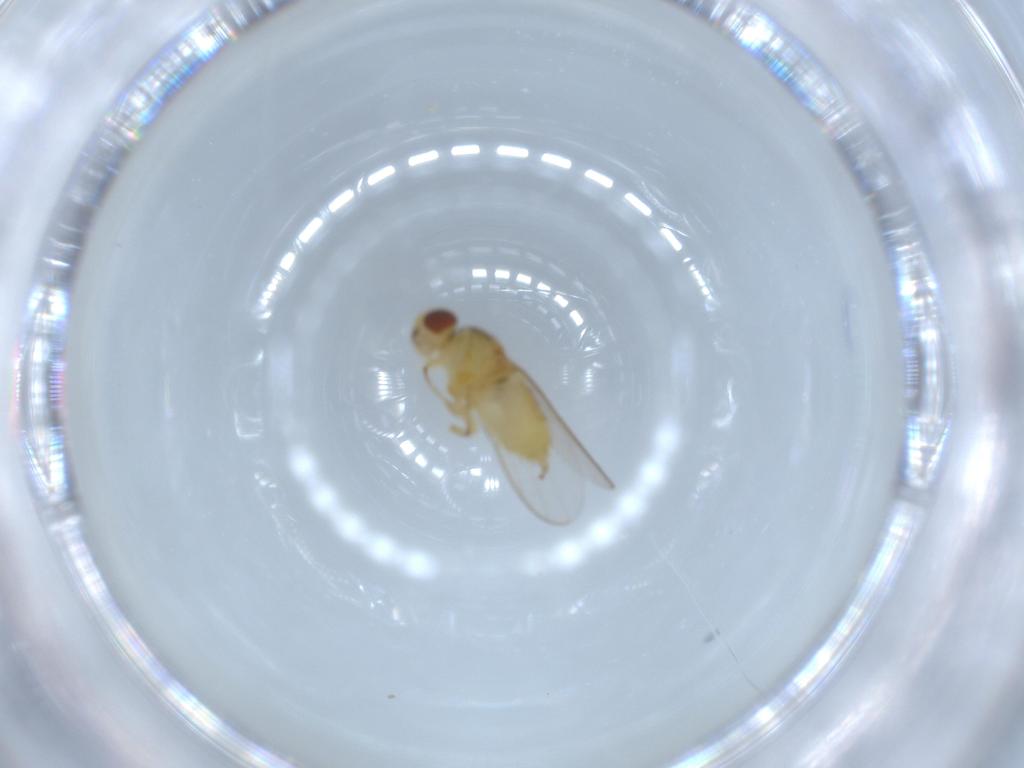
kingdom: Animalia
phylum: Arthropoda
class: Insecta
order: Diptera
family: Chloropidae
